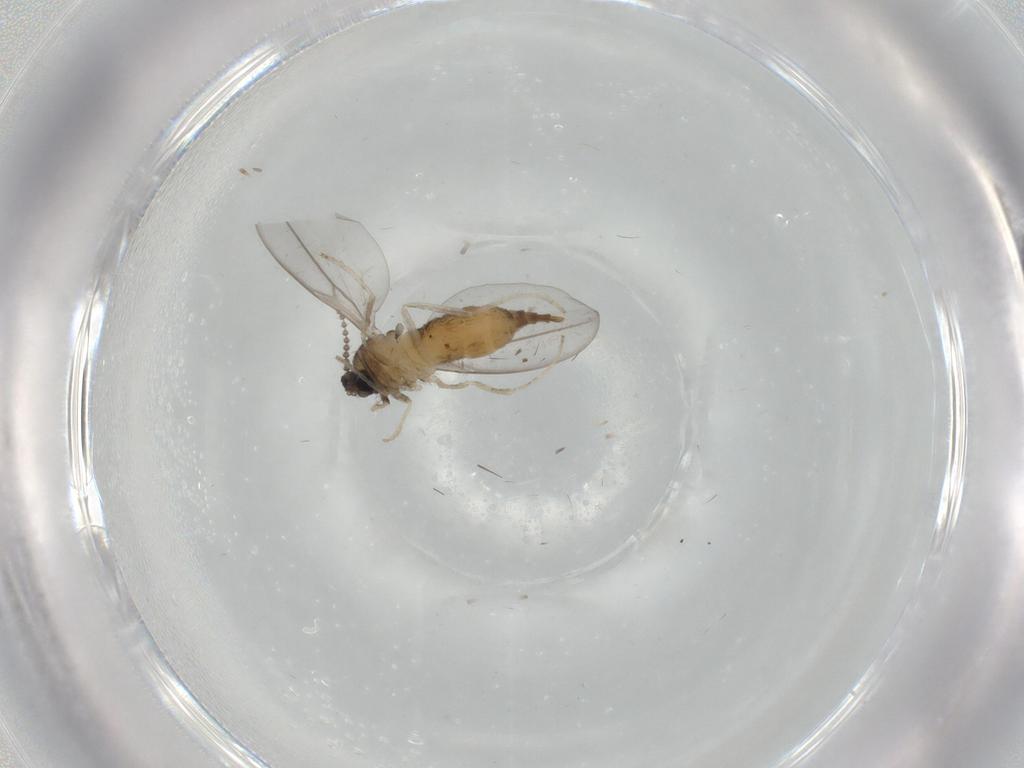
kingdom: Animalia
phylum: Arthropoda
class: Insecta
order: Diptera
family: Cecidomyiidae
